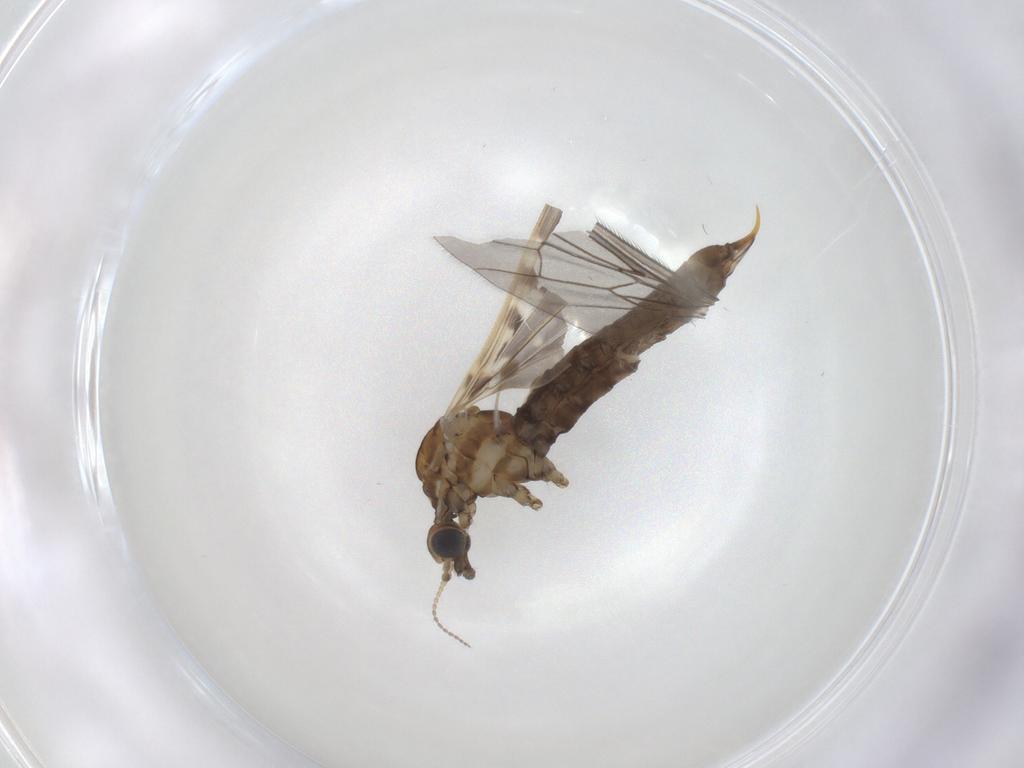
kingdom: Animalia
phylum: Arthropoda
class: Insecta
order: Diptera
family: Limoniidae
